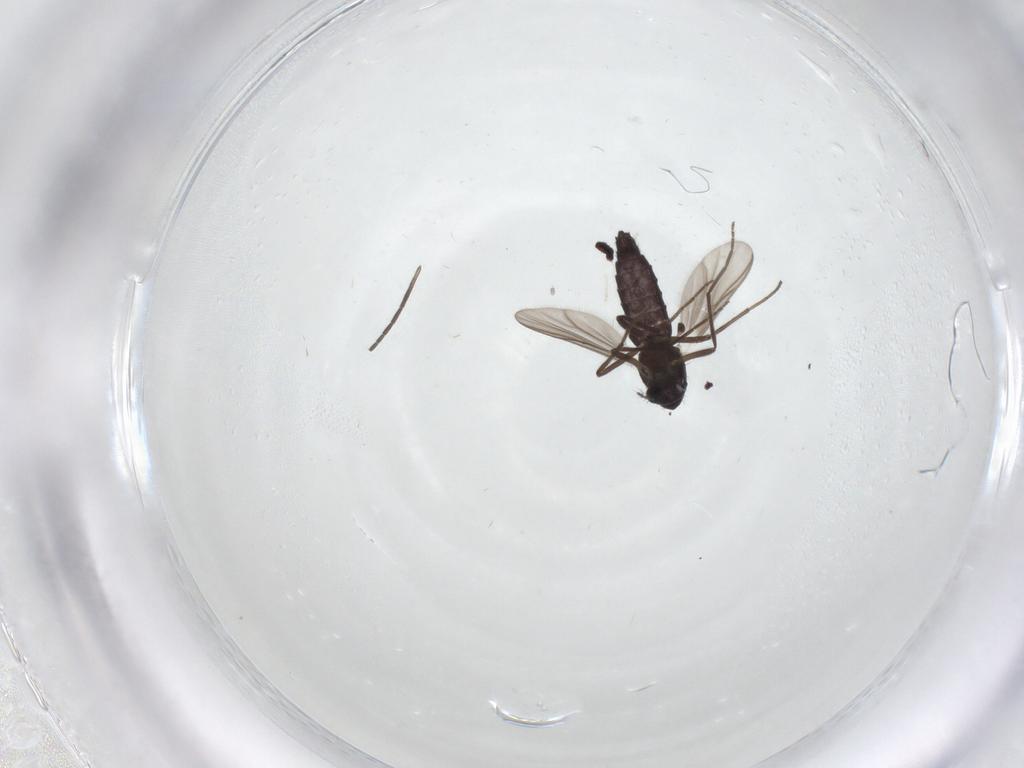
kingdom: Animalia
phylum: Arthropoda
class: Insecta
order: Diptera
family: Chironomidae
